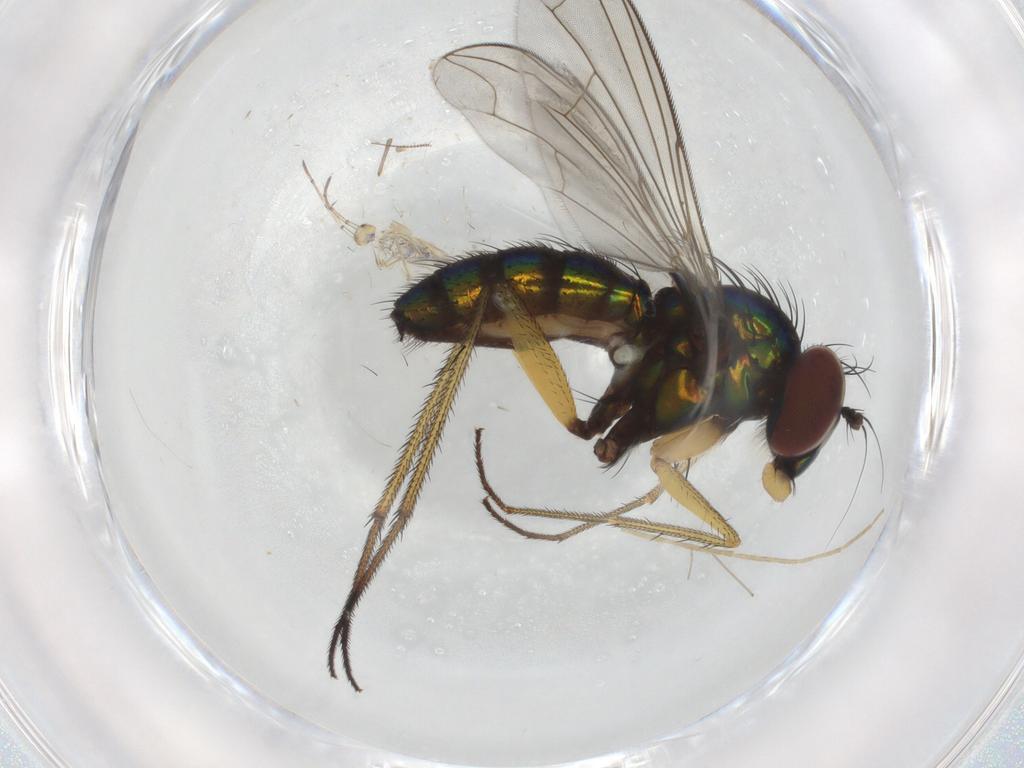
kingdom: Animalia
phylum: Arthropoda
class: Insecta
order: Diptera
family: Dolichopodidae
